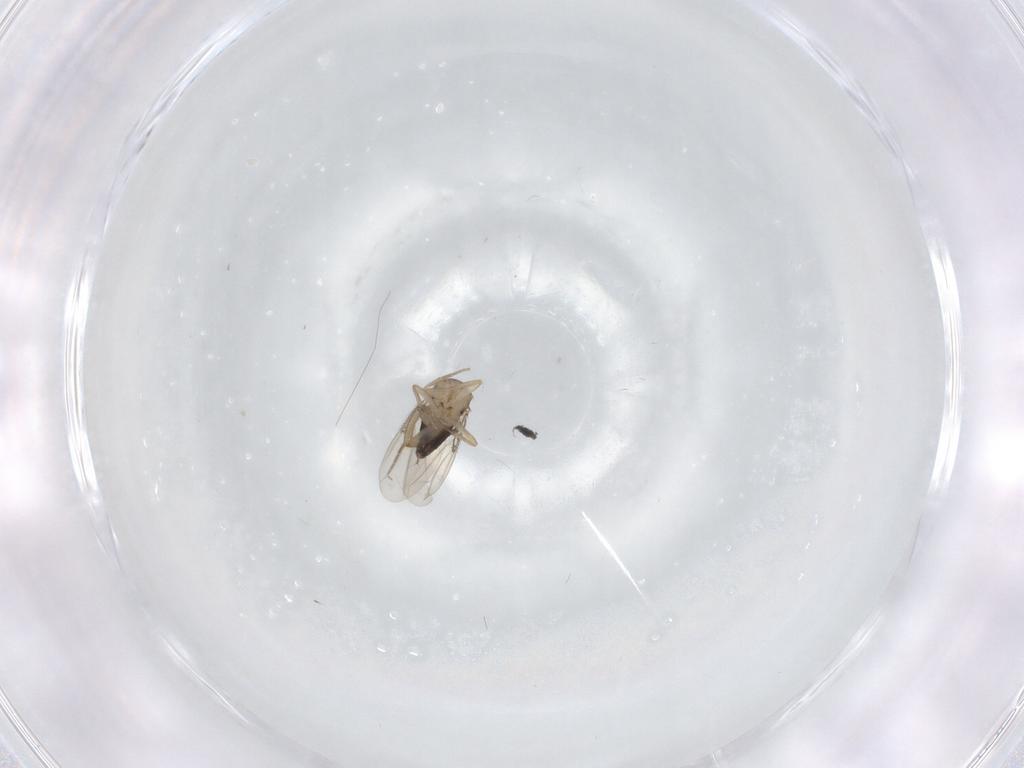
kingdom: Animalia
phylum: Arthropoda
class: Insecta
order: Diptera
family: Phoridae
